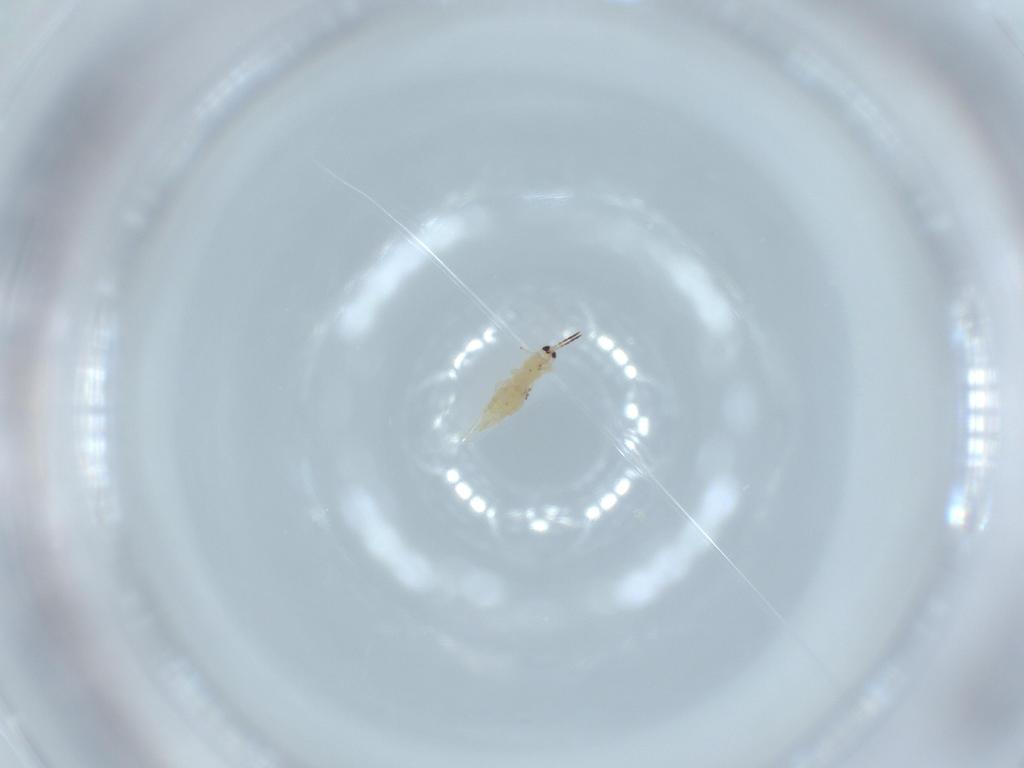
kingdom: Animalia
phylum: Arthropoda
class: Insecta
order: Thysanoptera
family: Melanthripidae
